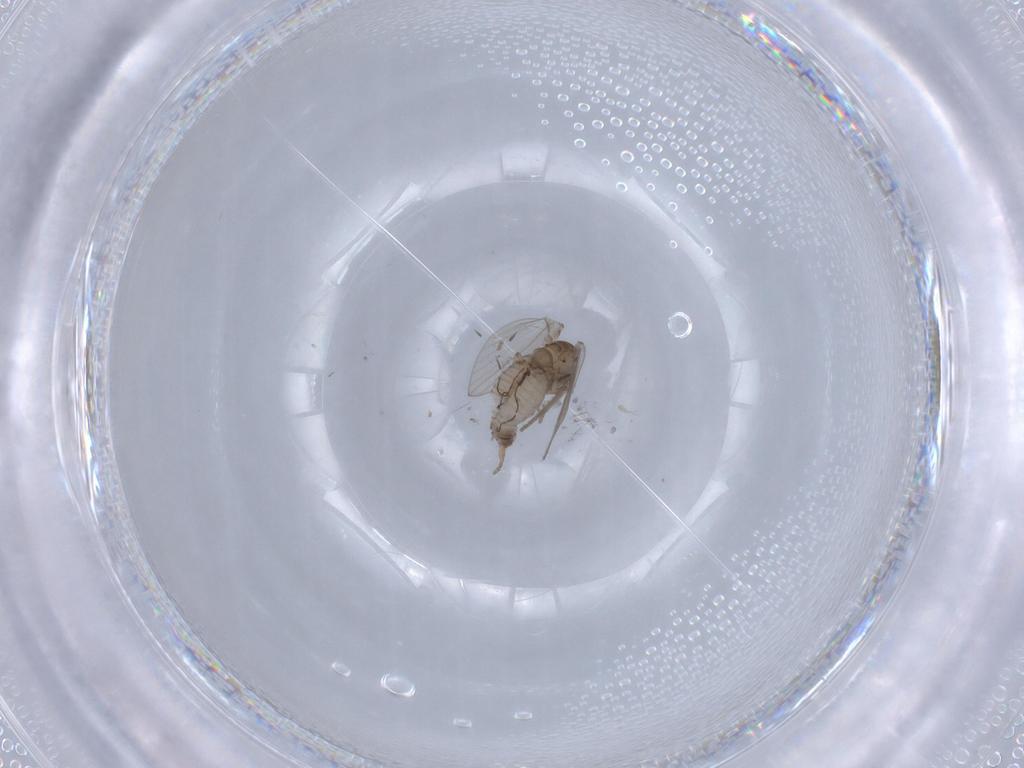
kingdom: Animalia
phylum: Arthropoda
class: Insecta
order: Diptera
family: Psychodidae
